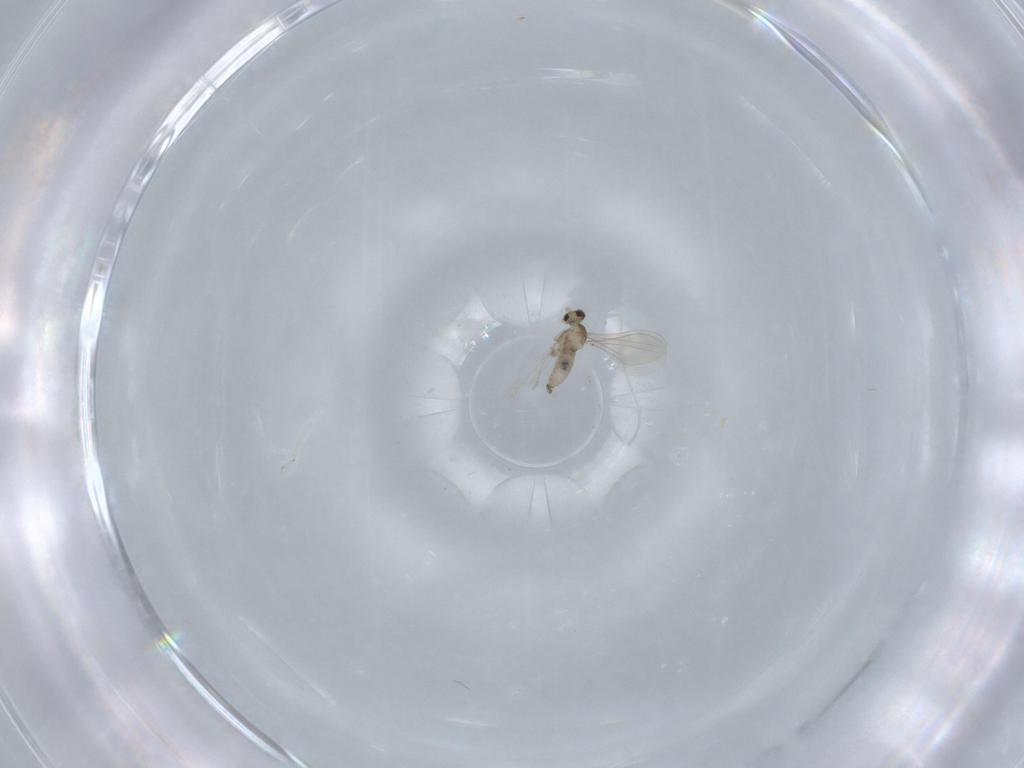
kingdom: Animalia
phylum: Arthropoda
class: Insecta
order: Diptera
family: Cecidomyiidae
